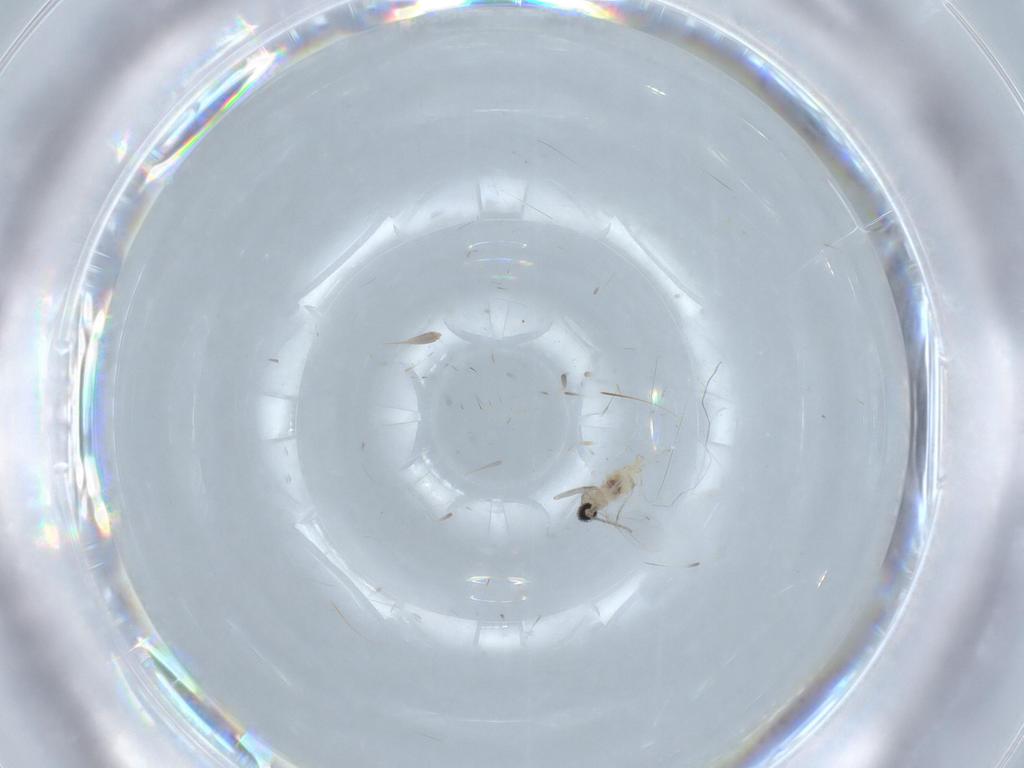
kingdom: Animalia
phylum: Arthropoda
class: Insecta
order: Diptera
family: Cecidomyiidae
